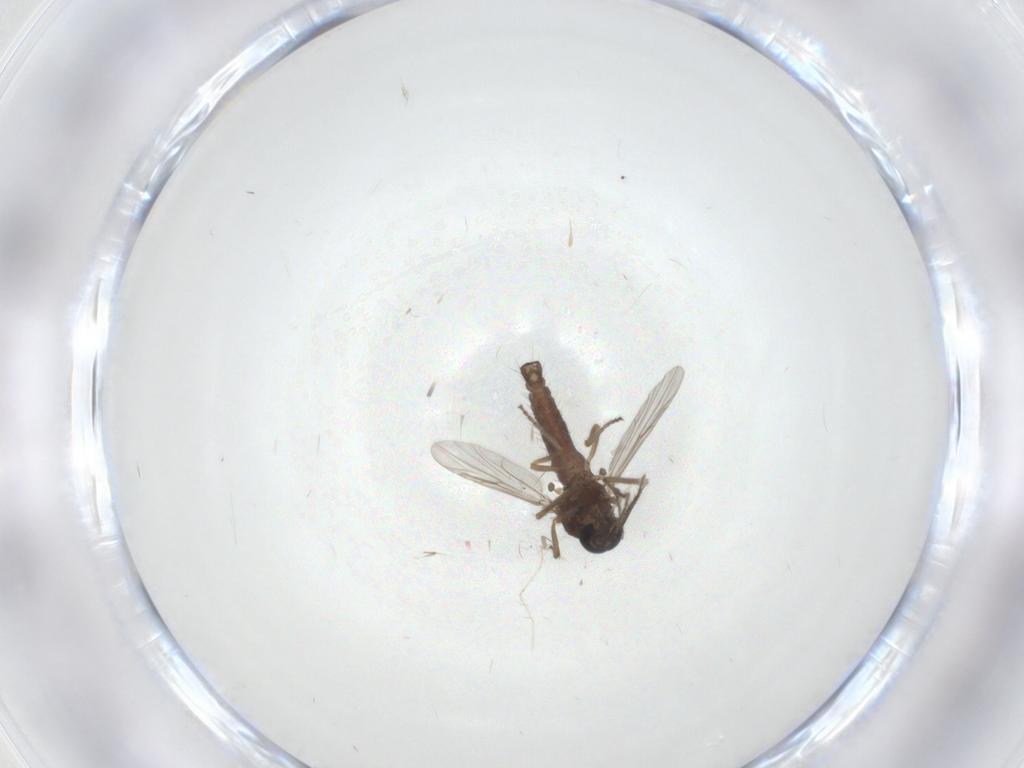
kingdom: Animalia
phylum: Arthropoda
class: Insecta
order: Diptera
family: Ceratopogonidae
